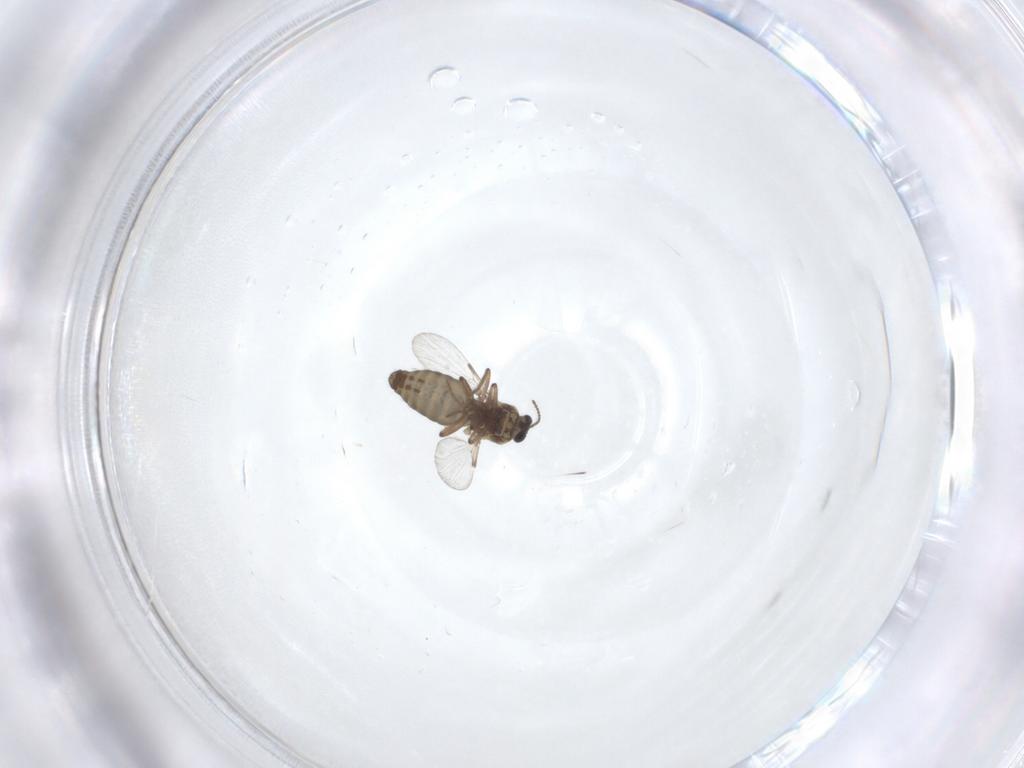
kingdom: Animalia
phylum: Arthropoda
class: Insecta
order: Diptera
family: Ceratopogonidae
